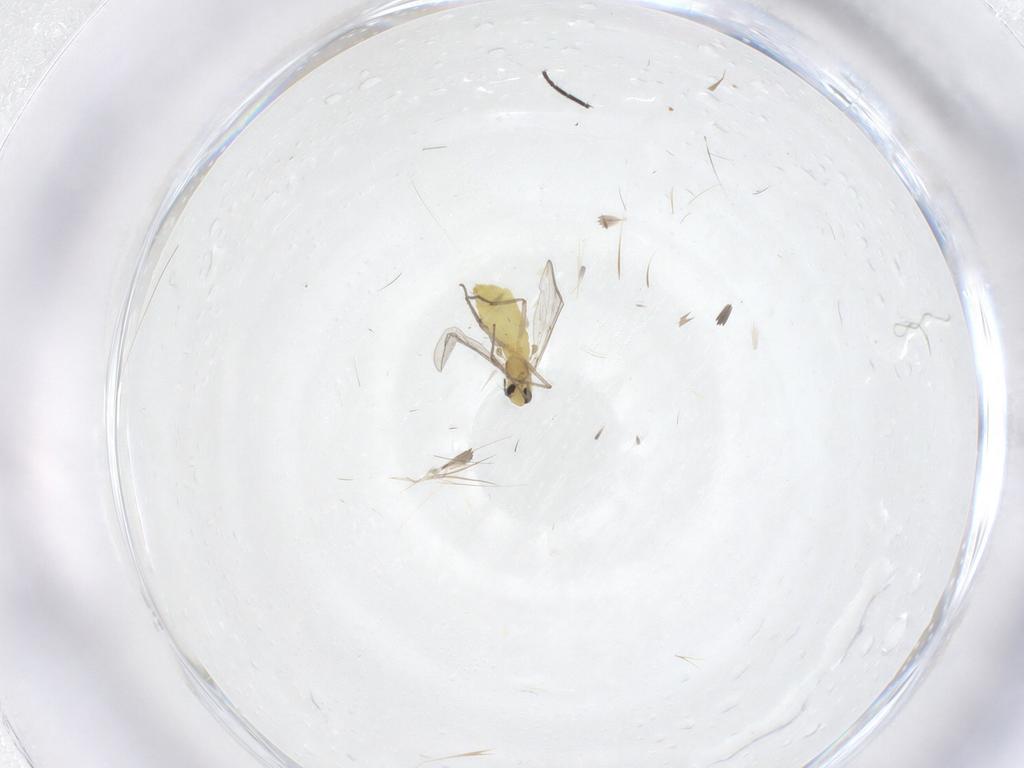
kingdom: Animalia
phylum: Arthropoda
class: Insecta
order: Diptera
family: Chironomidae
